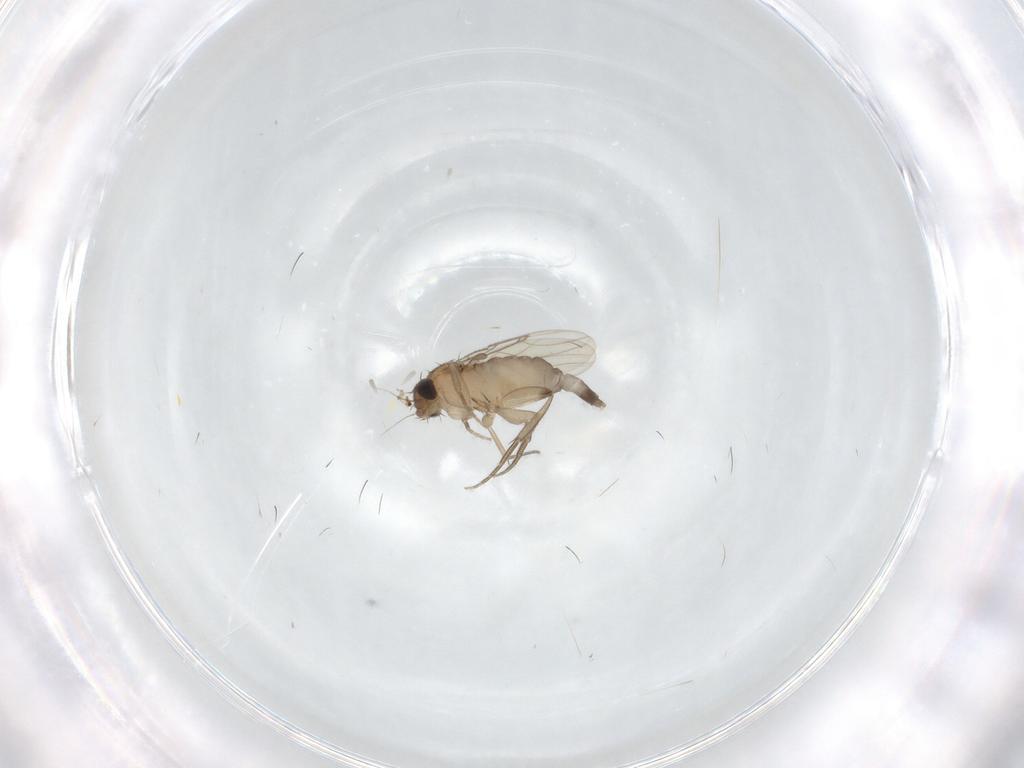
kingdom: Animalia
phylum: Arthropoda
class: Insecta
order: Diptera
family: Phoridae
